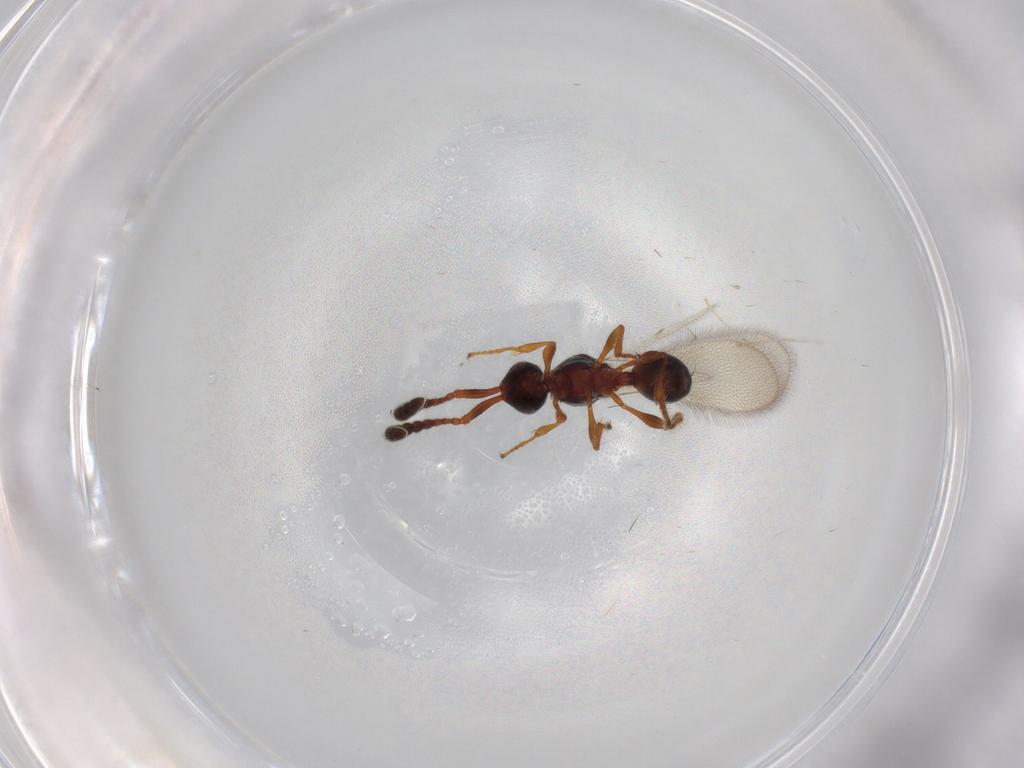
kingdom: Animalia
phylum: Arthropoda
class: Insecta
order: Hymenoptera
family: Diapriidae
